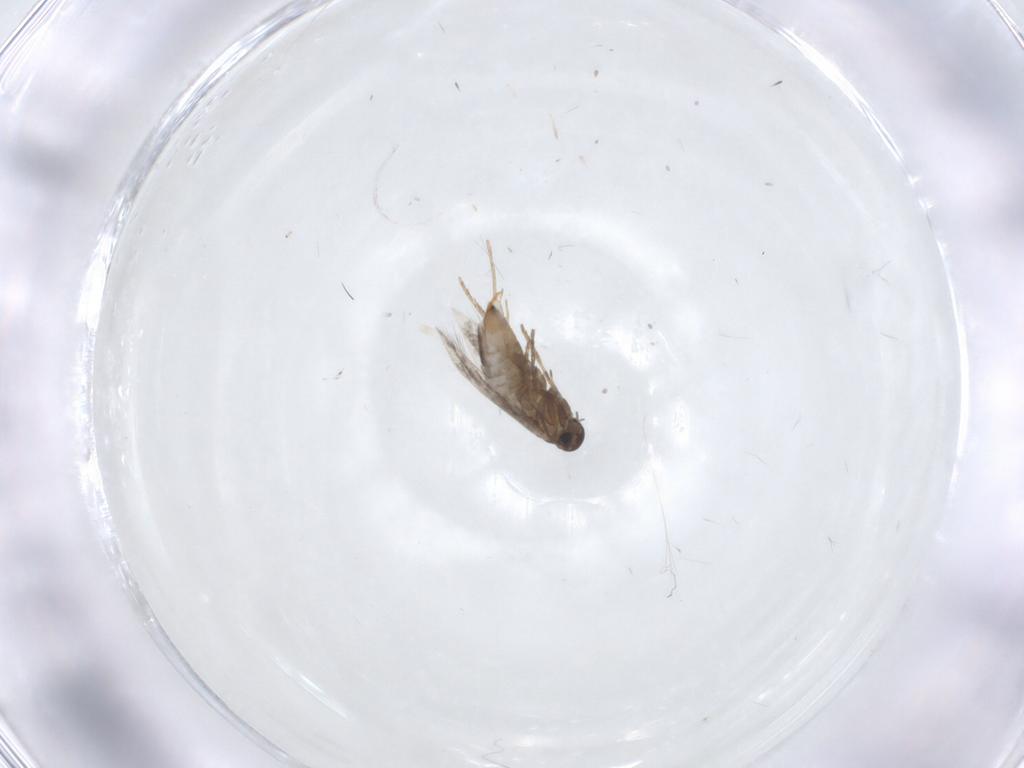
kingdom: Animalia
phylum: Arthropoda
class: Insecta
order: Lepidoptera
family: Heliozelidae
